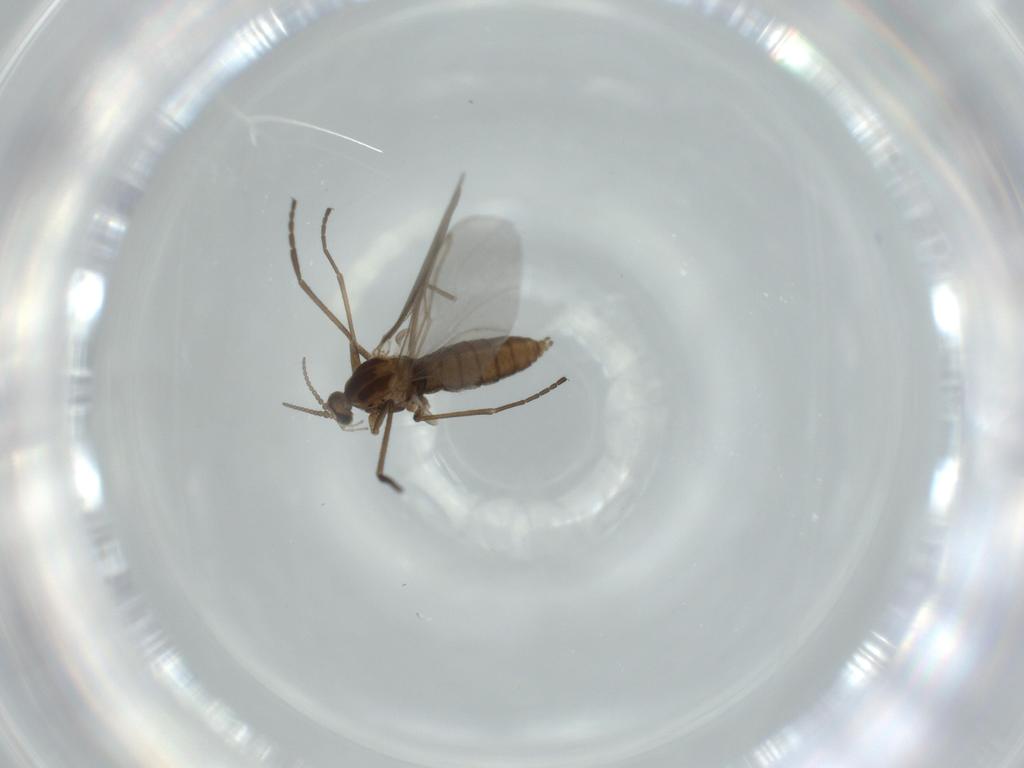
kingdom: Animalia
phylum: Arthropoda
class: Insecta
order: Diptera
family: Cecidomyiidae
